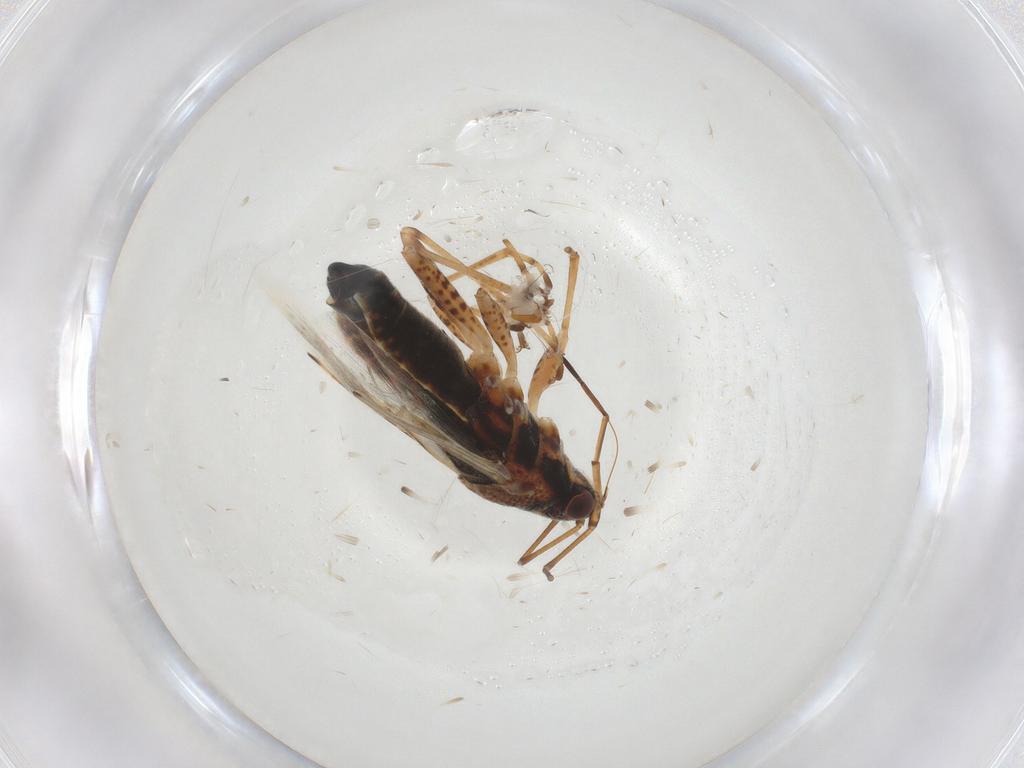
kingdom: Animalia
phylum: Arthropoda
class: Insecta
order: Hemiptera
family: Lygaeidae
